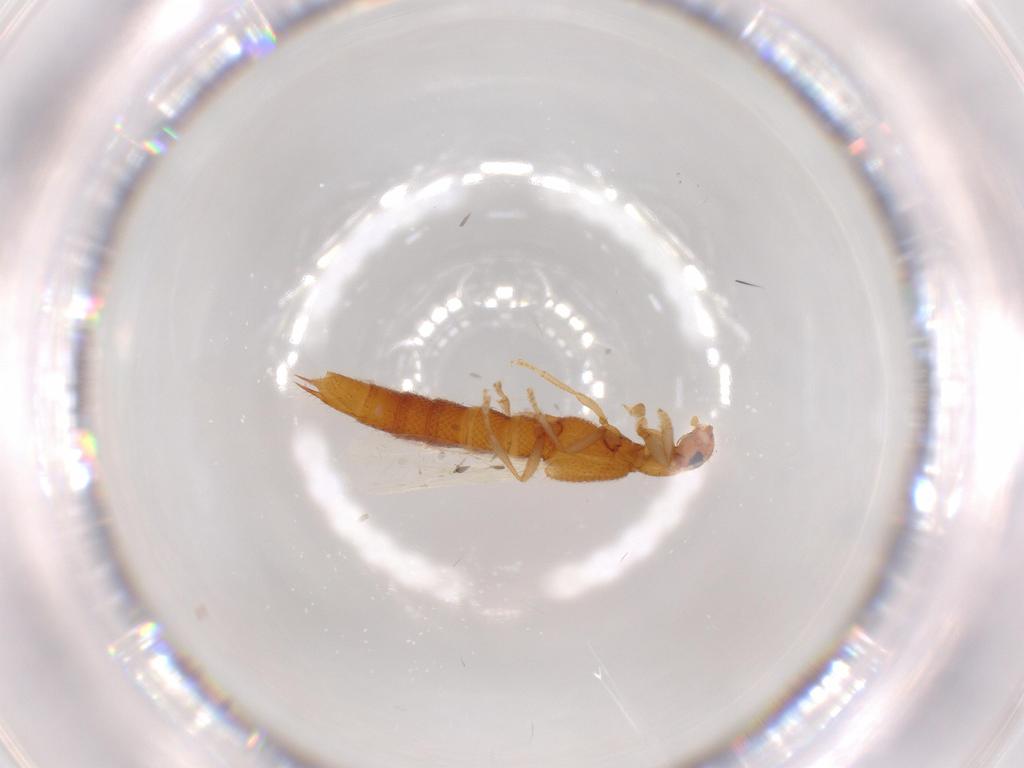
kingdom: Animalia
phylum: Arthropoda
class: Insecta
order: Coleoptera
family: Staphylinidae
